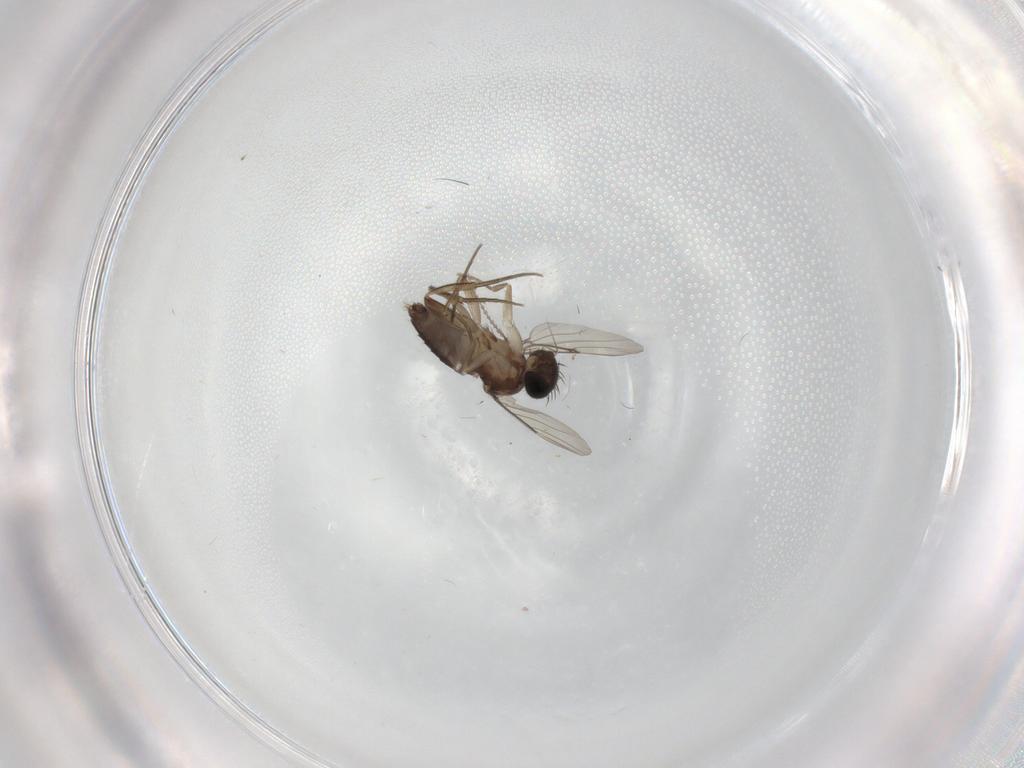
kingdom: Animalia
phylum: Arthropoda
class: Insecta
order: Diptera
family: Phoridae
